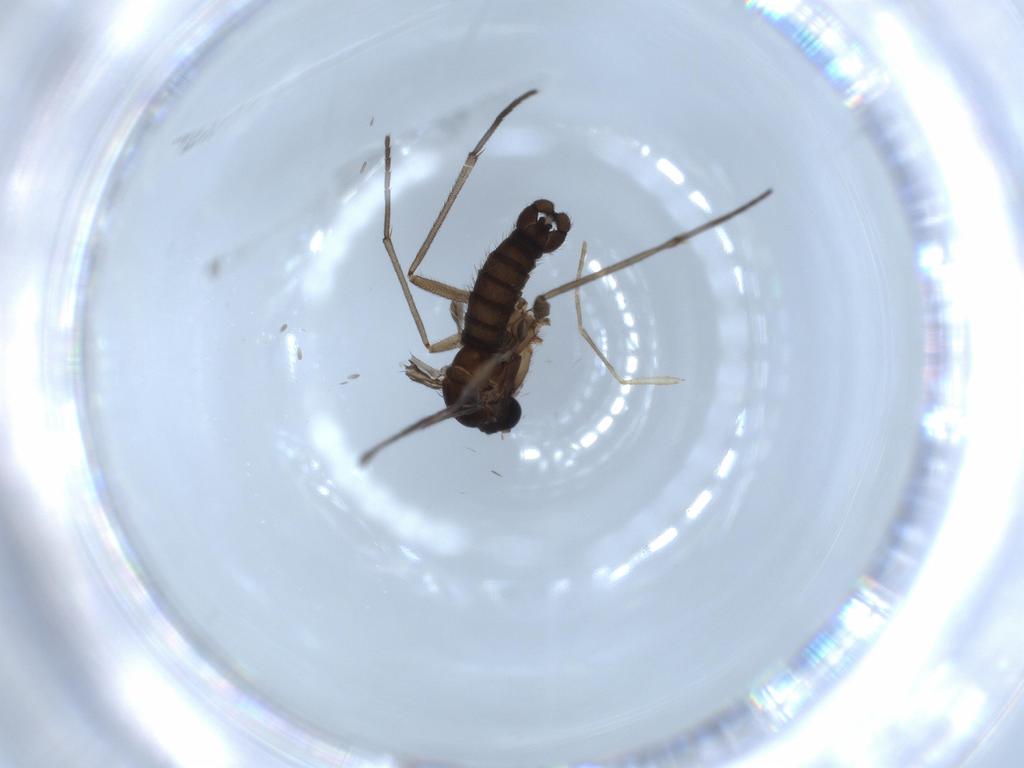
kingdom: Animalia
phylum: Arthropoda
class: Insecta
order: Diptera
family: Sciaridae
